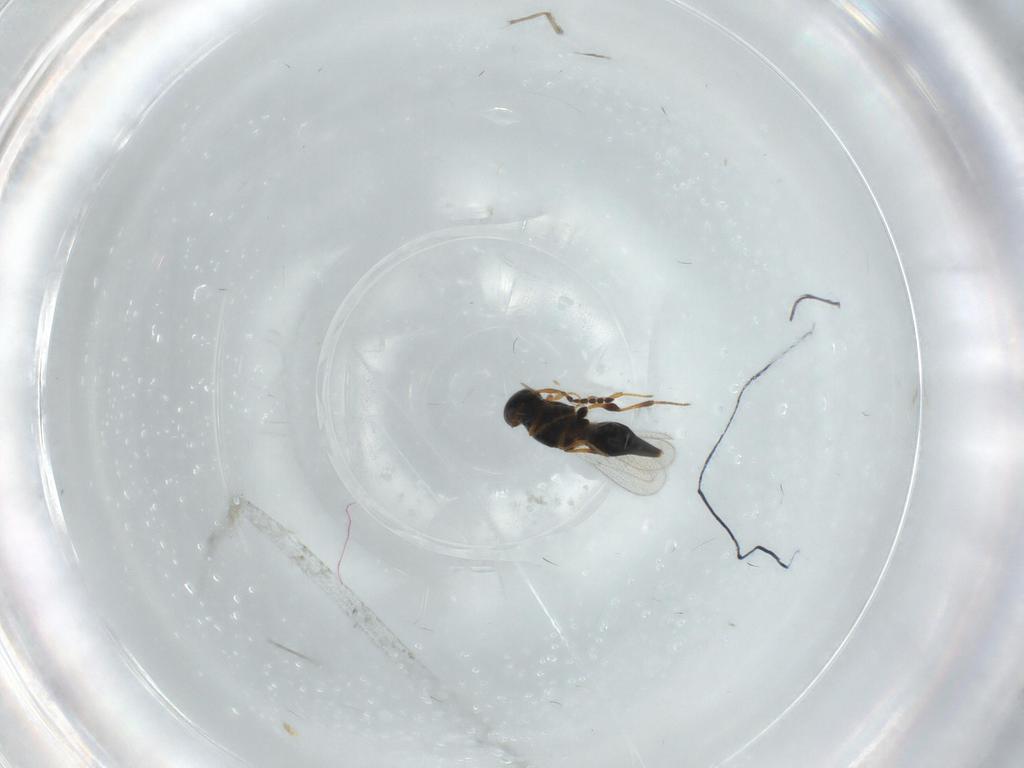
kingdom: Animalia
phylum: Arthropoda
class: Insecta
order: Hymenoptera
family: Platygastridae
